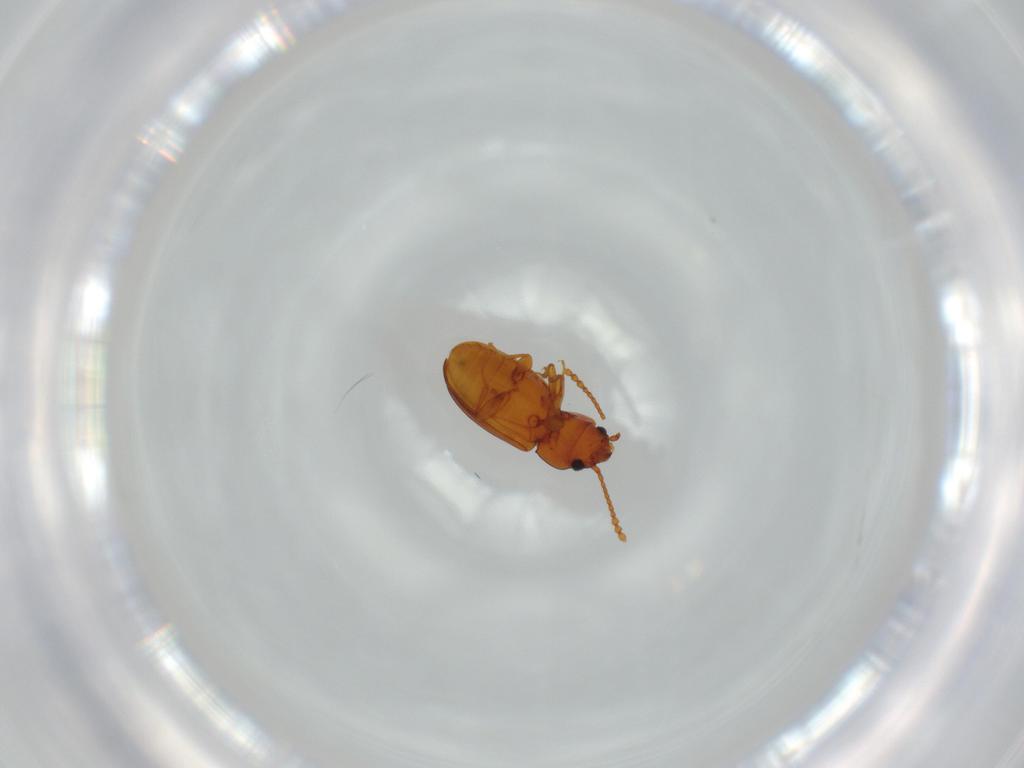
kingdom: Animalia
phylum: Arthropoda
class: Insecta
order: Coleoptera
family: Laemophloeidae
